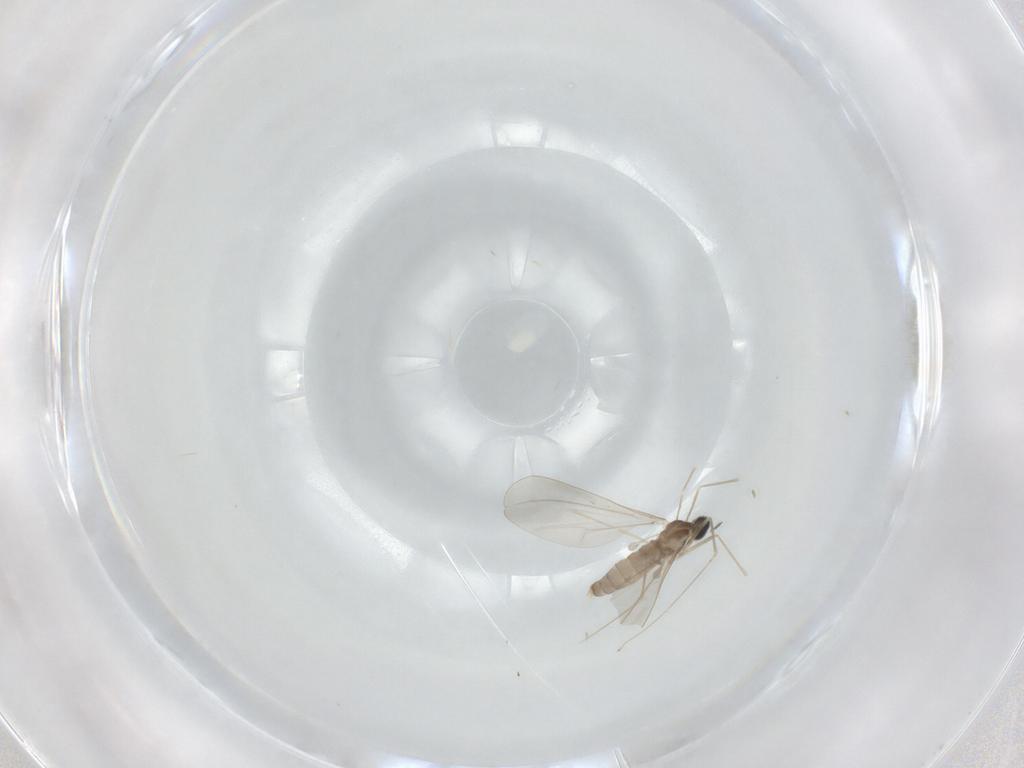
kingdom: Animalia
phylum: Arthropoda
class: Insecta
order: Diptera
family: Cecidomyiidae
